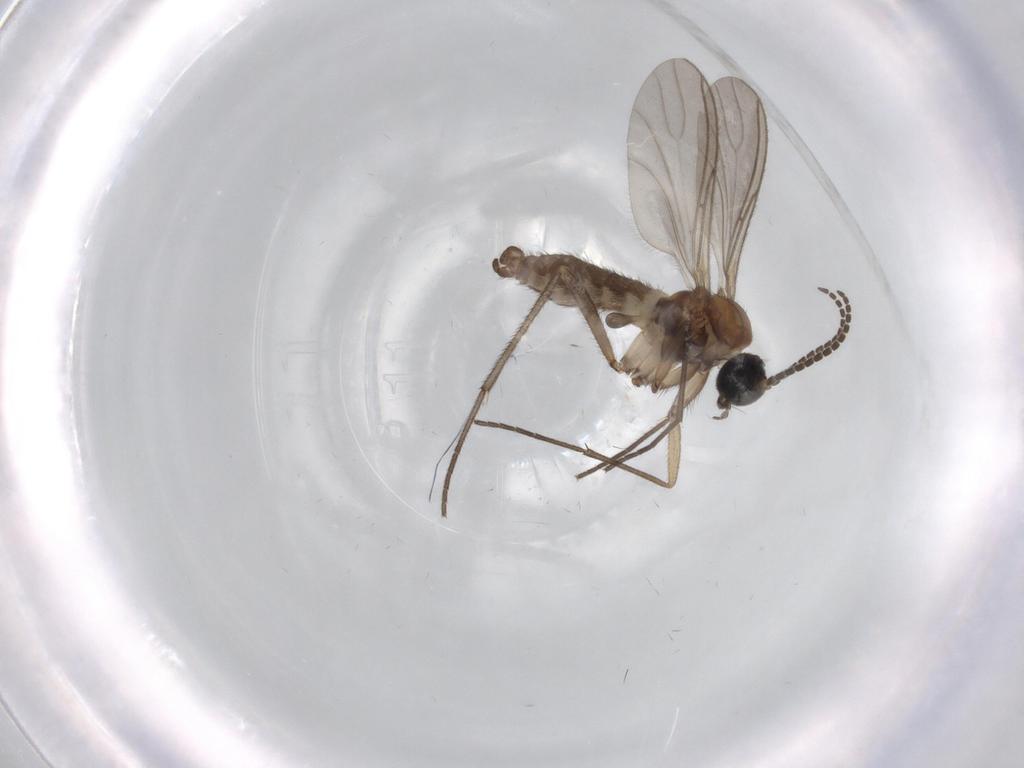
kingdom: Animalia
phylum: Arthropoda
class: Insecta
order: Diptera
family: Sciaridae
